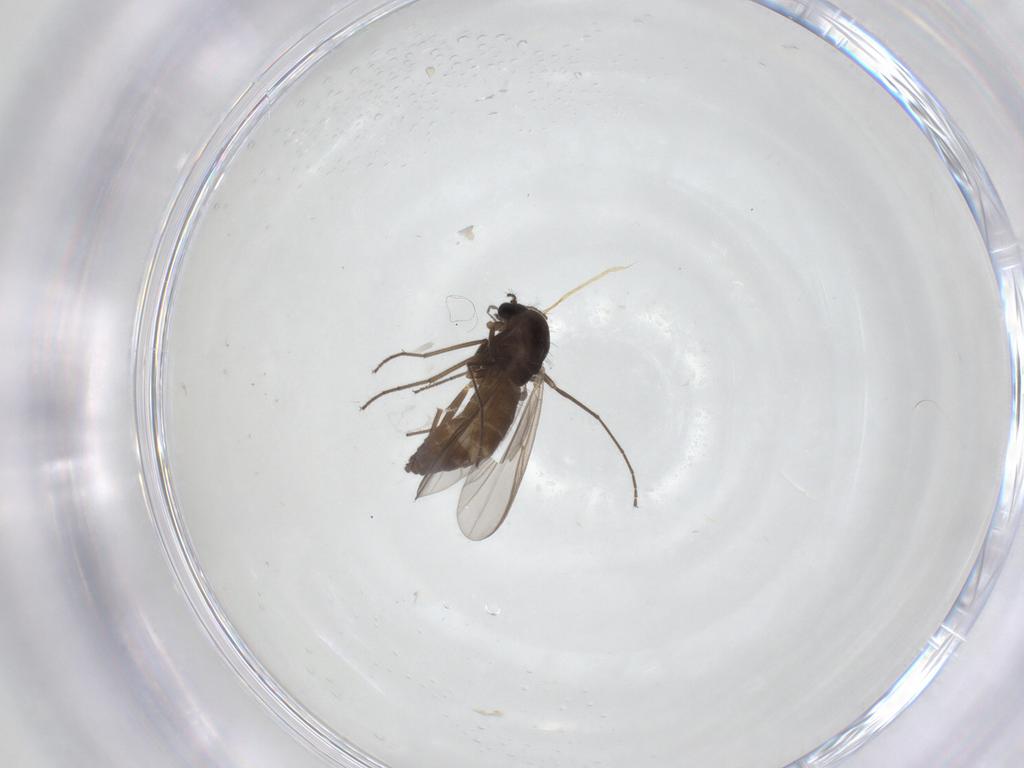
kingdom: Animalia
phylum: Arthropoda
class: Insecta
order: Diptera
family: Chironomidae
